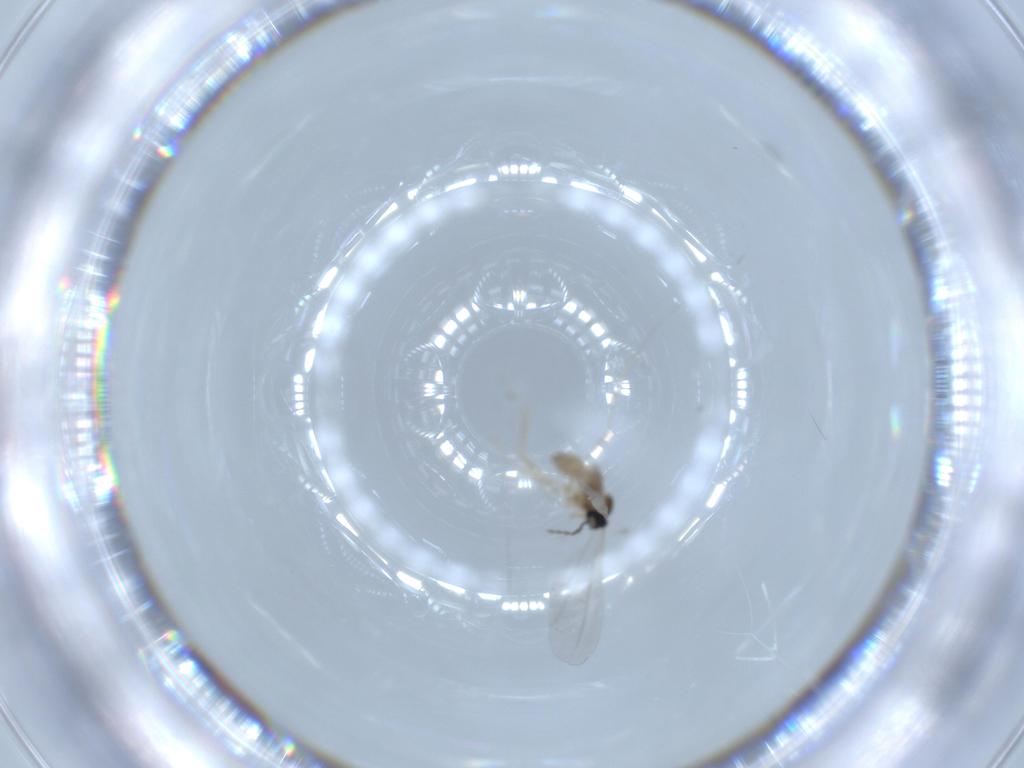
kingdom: Animalia
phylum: Arthropoda
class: Insecta
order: Diptera
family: Cecidomyiidae
